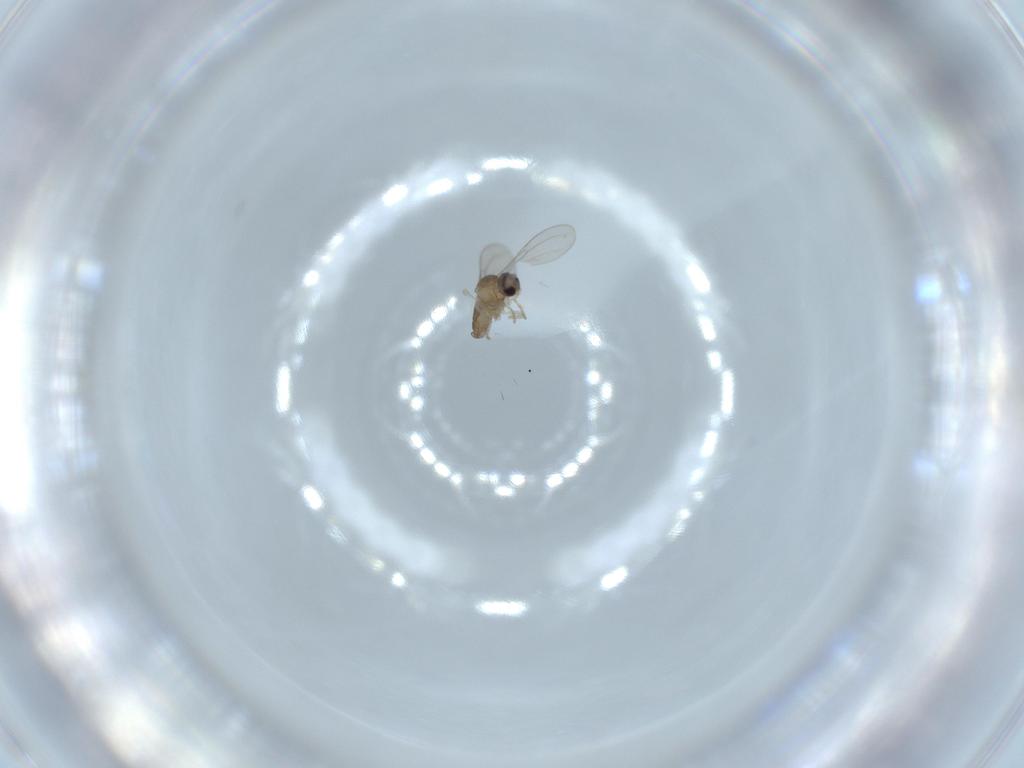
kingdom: Animalia
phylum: Arthropoda
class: Insecta
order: Diptera
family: Cecidomyiidae
